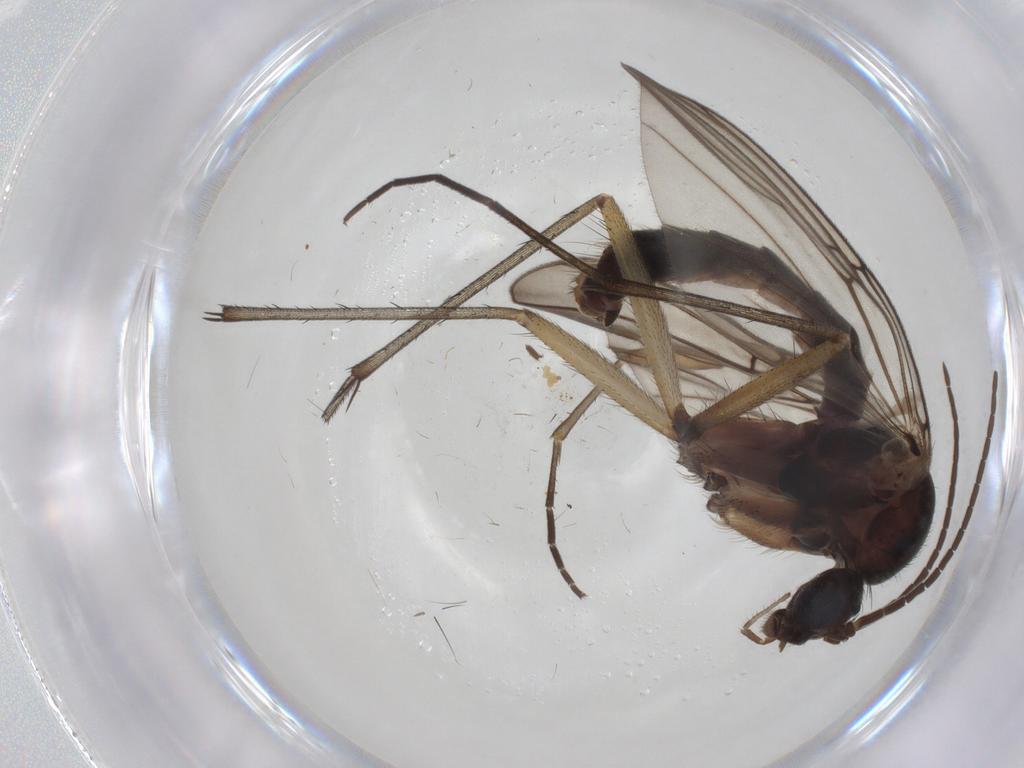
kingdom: Animalia
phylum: Arthropoda
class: Insecta
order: Diptera
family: Mycetophilidae
